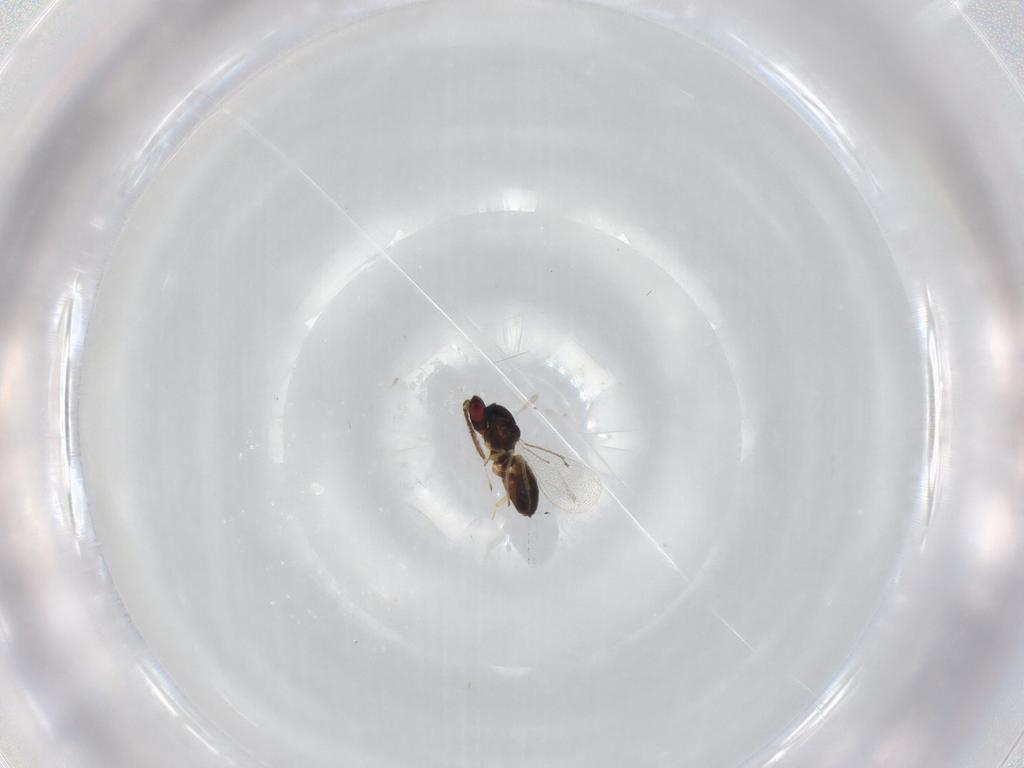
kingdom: Animalia
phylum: Arthropoda
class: Insecta
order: Hymenoptera
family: Eulophidae
